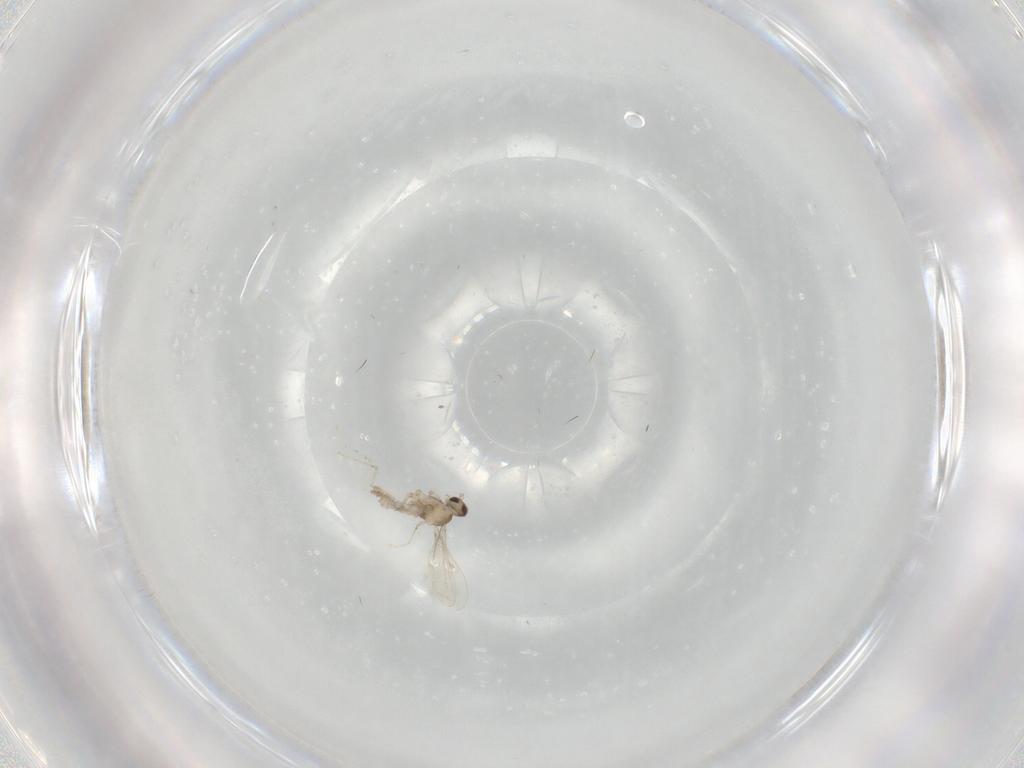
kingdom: Animalia
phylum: Arthropoda
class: Insecta
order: Diptera
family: Cecidomyiidae
